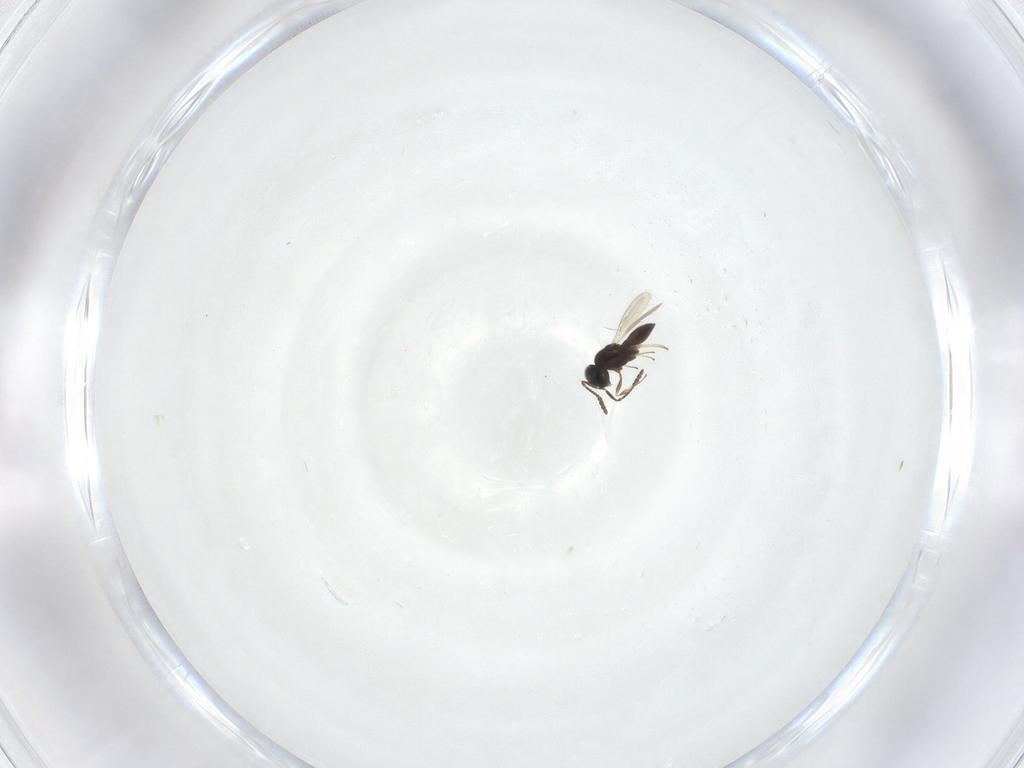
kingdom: Animalia
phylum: Arthropoda
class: Insecta
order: Hymenoptera
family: Scelionidae
